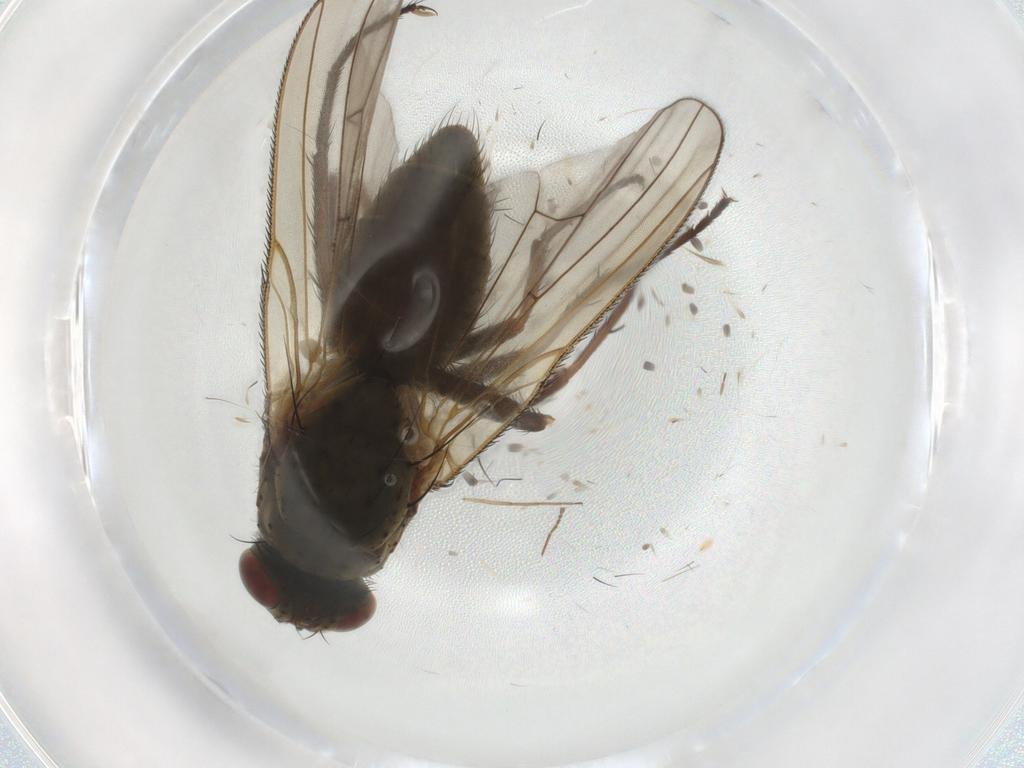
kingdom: Animalia
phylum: Arthropoda
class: Insecta
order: Diptera
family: Anthomyiidae
